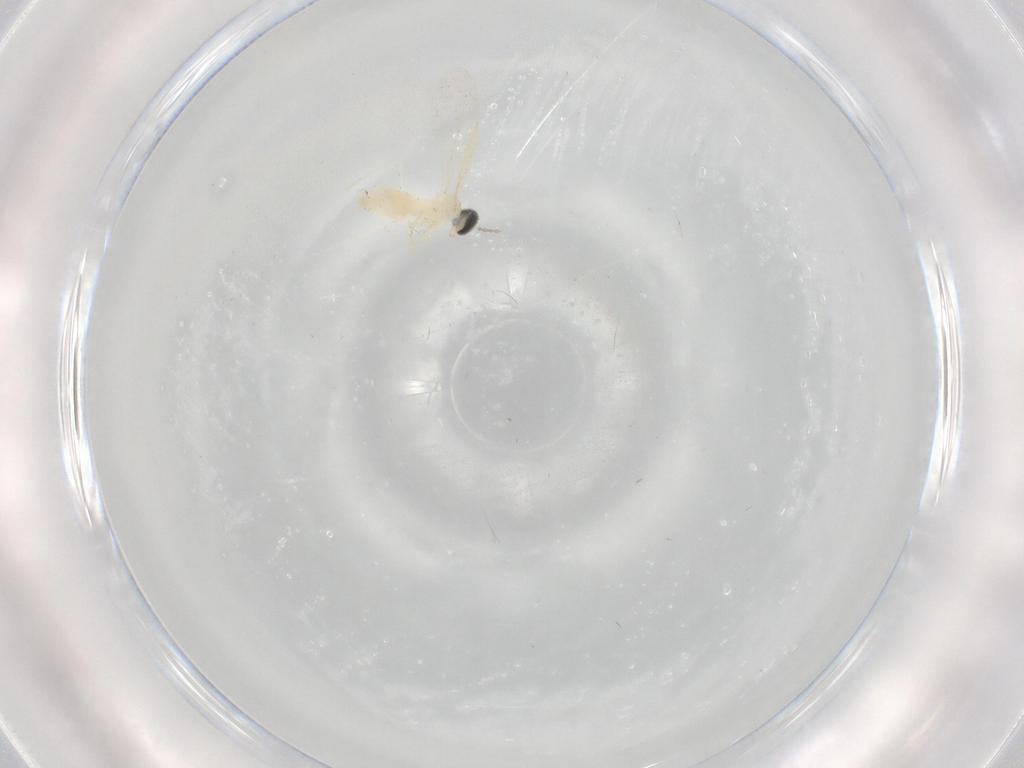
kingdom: Animalia
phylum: Arthropoda
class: Insecta
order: Diptera
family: Cecidomyiidae
